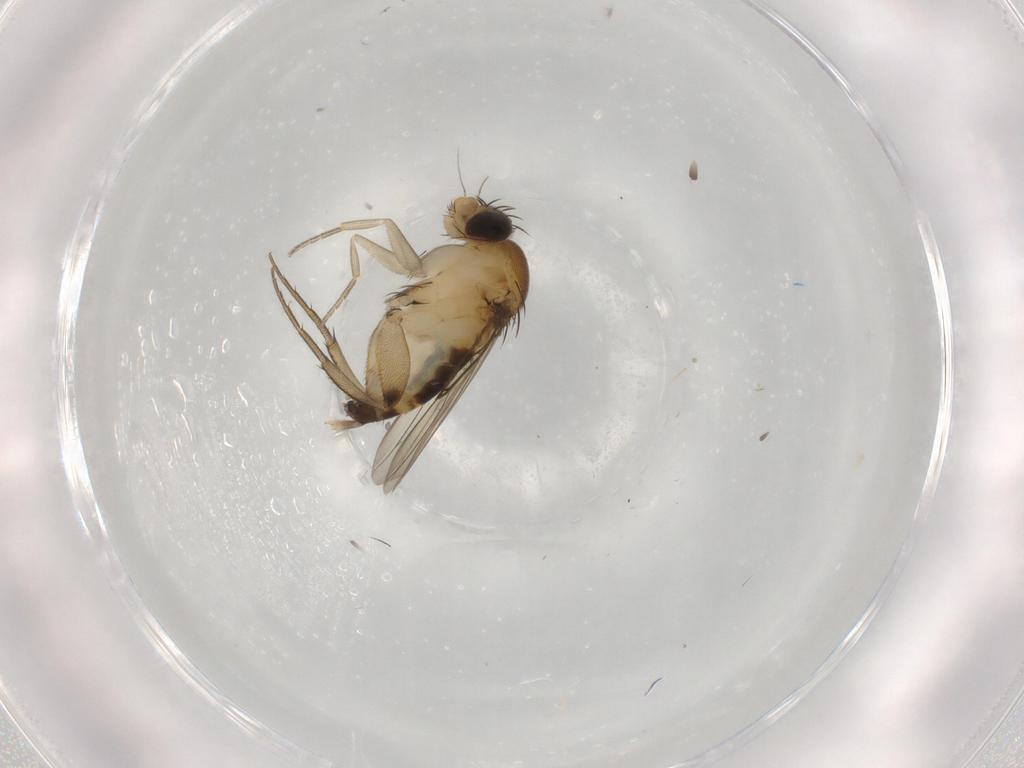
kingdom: Animalia
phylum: Arthropoda
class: Insecta
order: Diptera
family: Phoridae
